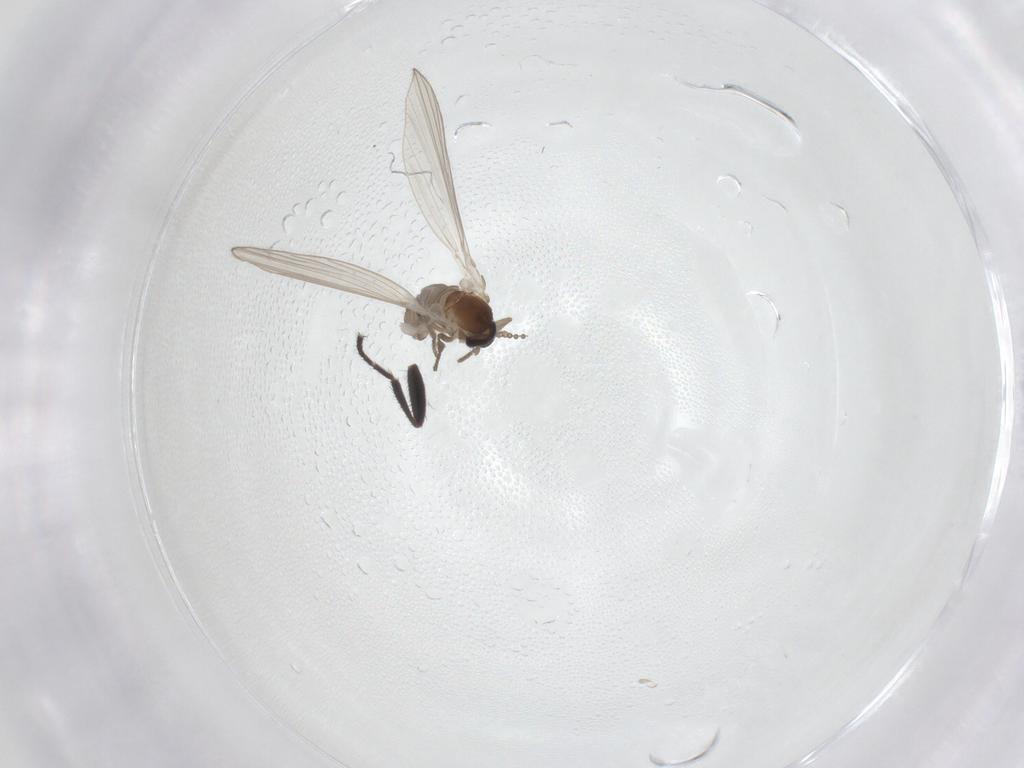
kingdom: Animalia
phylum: Arthropoda
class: Insecta
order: Diptera
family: Psychodidae
